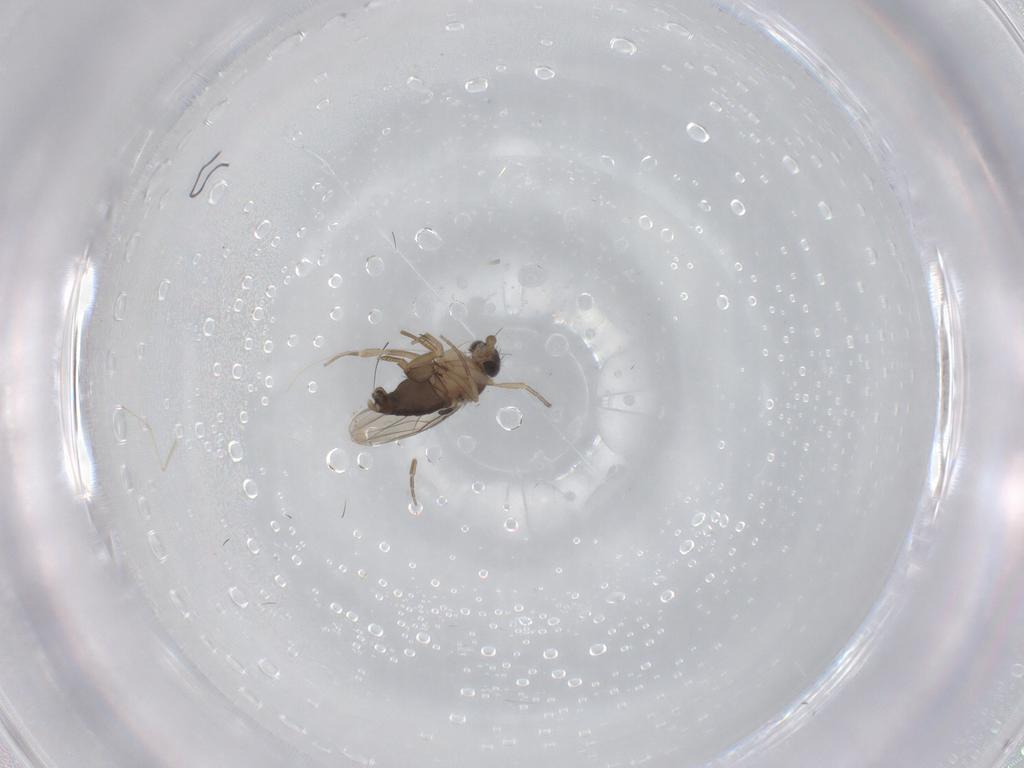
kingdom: Animalia
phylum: Arthropoda
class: Insecta
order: Diptera
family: Phoridae
